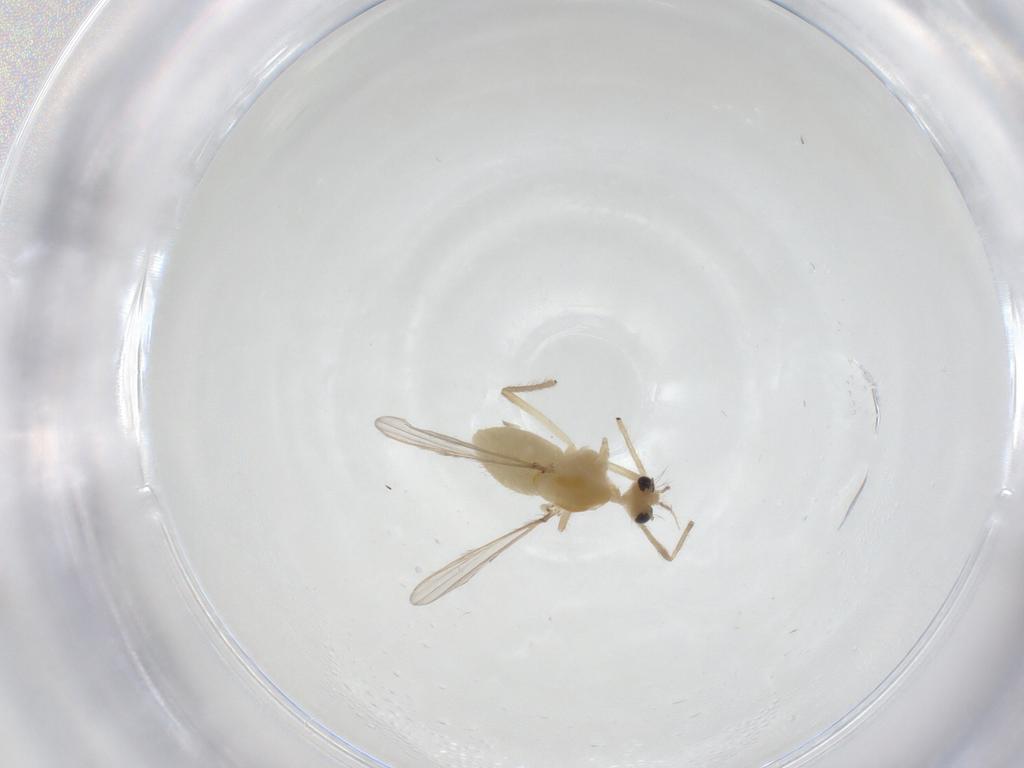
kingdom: Animalia
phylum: Arthropoda
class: Insecta
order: Diptera
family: Chironomidae
